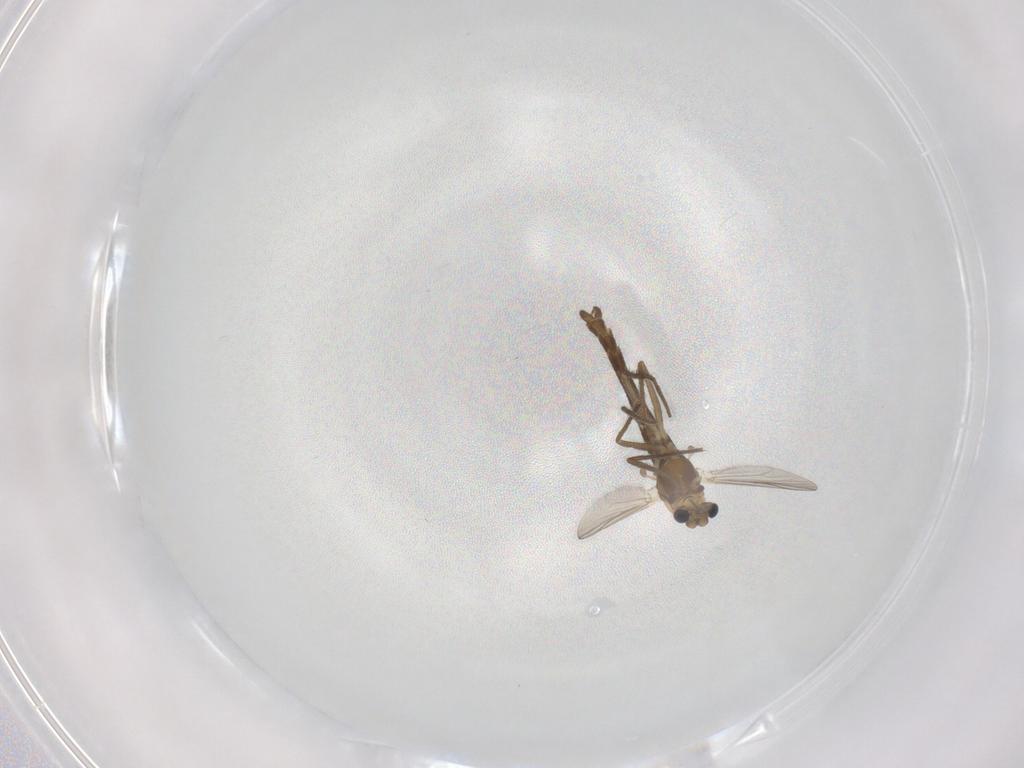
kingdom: Animalia
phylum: Arthropoda
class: Insecta
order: Diptera
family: Chironomidae
